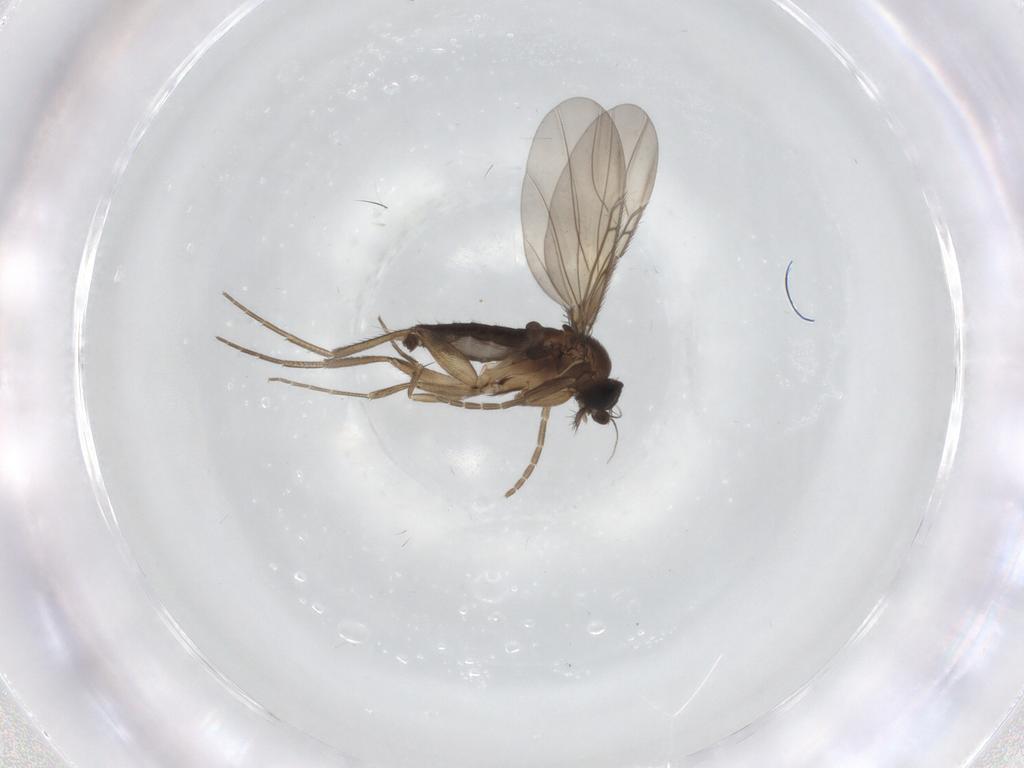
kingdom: Animalia
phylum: Arthropoda
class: Insecta
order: Diptera
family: Phoridae
